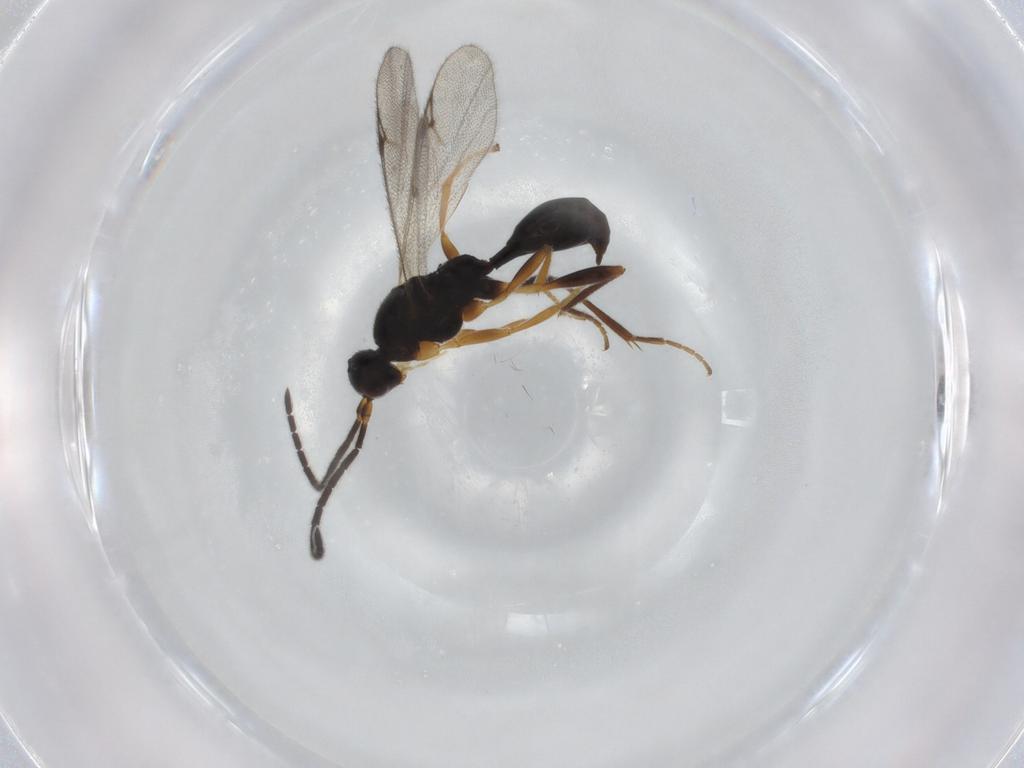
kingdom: Animalia
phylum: Arthropoda
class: Insecta
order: Hymenoptera
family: Proctotrupidae
